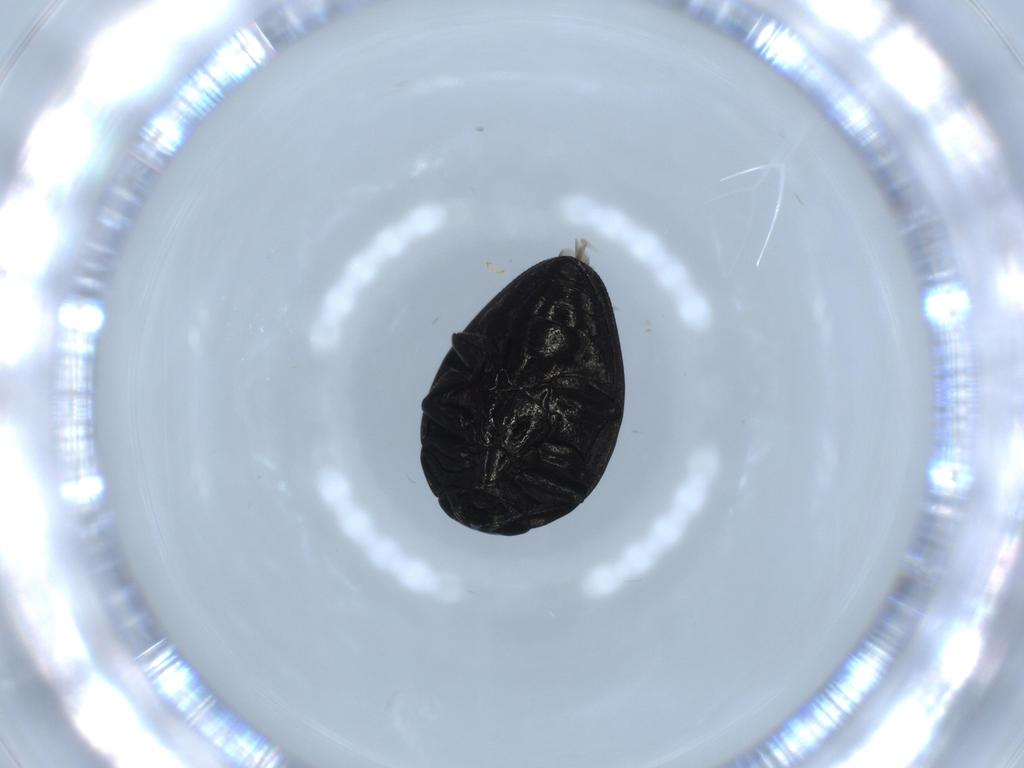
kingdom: Animalia
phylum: Arthropoda
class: Insecta
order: Coleoptera
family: Buprestidae
